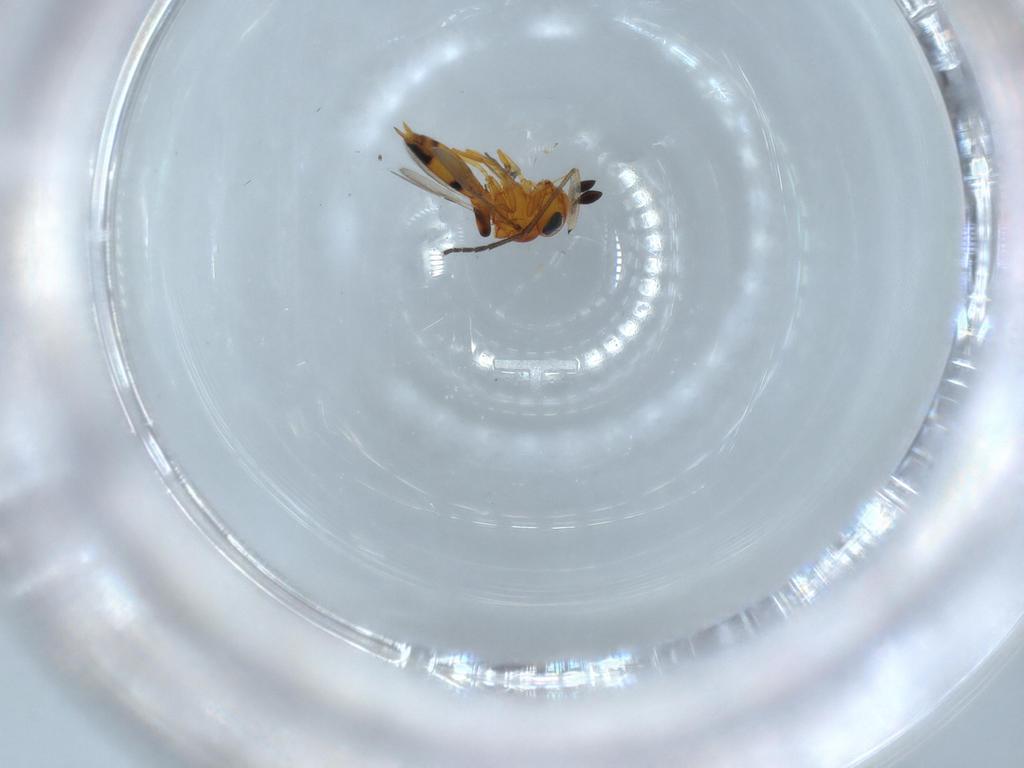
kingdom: Animalia
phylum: Arthropoda
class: Insecta
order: Hymenoptera
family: Scelionidae
